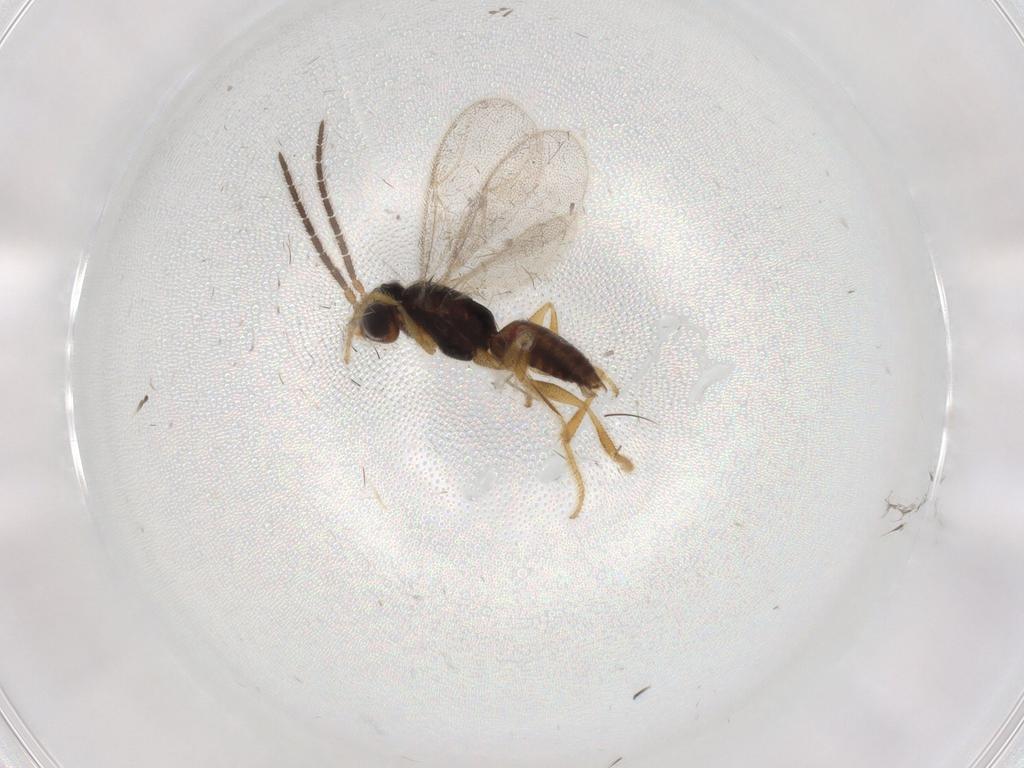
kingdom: Animalia
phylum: Arthropoda
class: Insecta
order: Hymenoptera
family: Dryinidae
